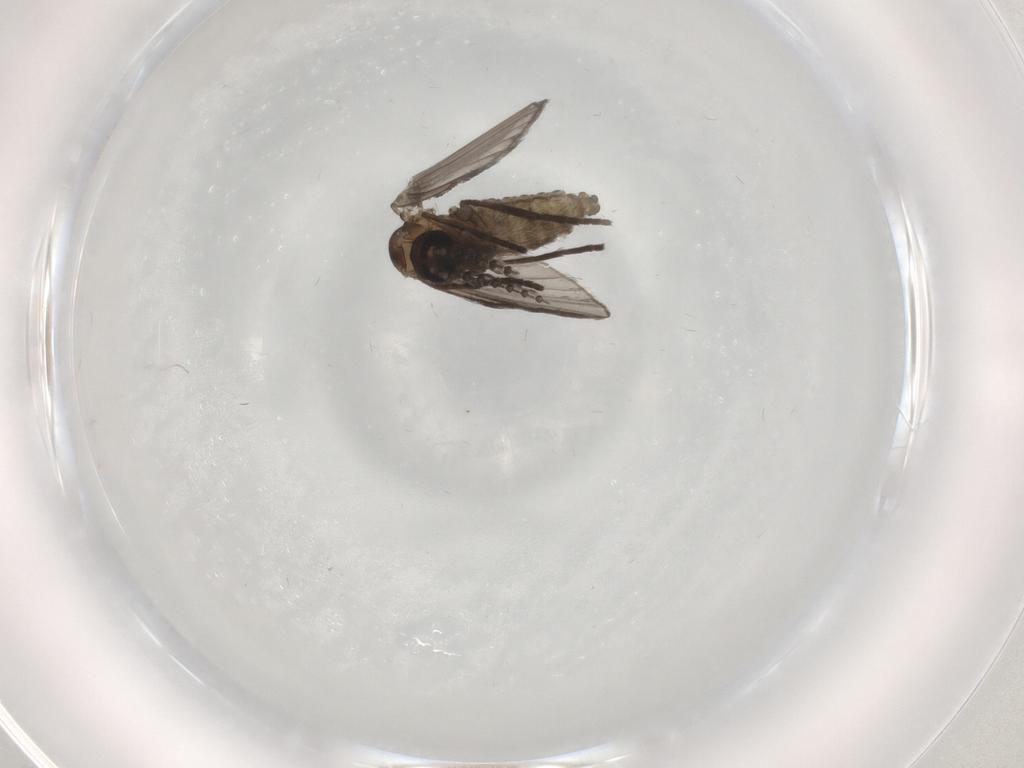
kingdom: Animalia
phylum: Arthropoda
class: Insecta
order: Diptera
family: Psychodidae
